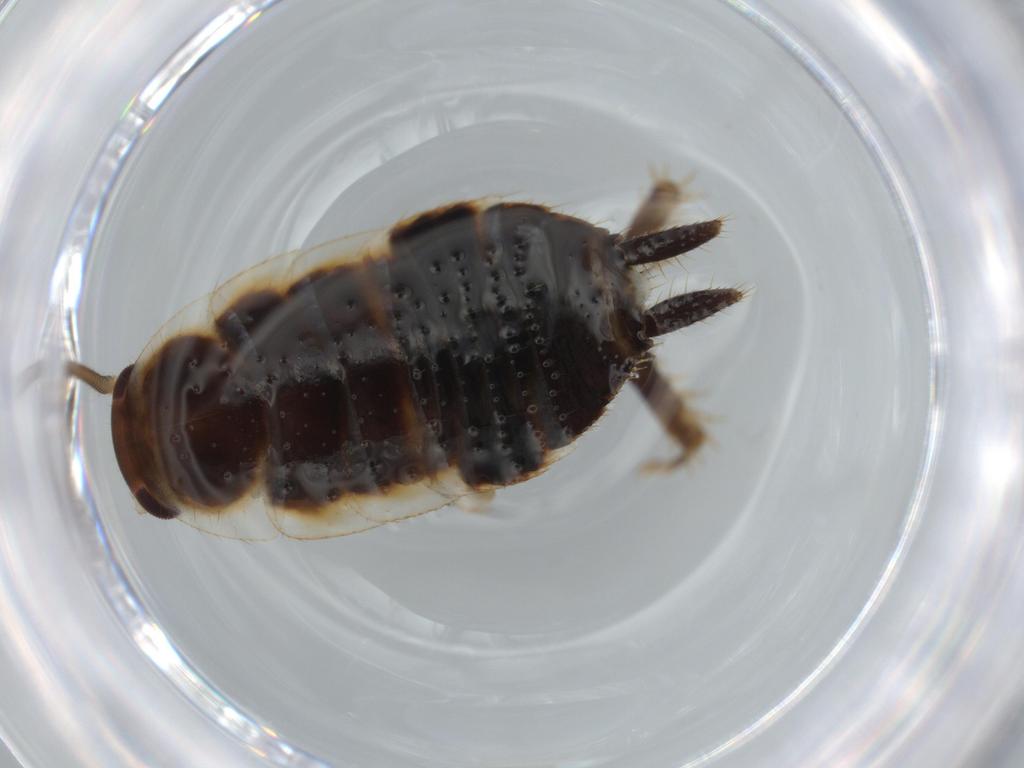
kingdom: Animalia
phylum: Arthropoda
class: Insecta
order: Blattodea
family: Ectobiidae
